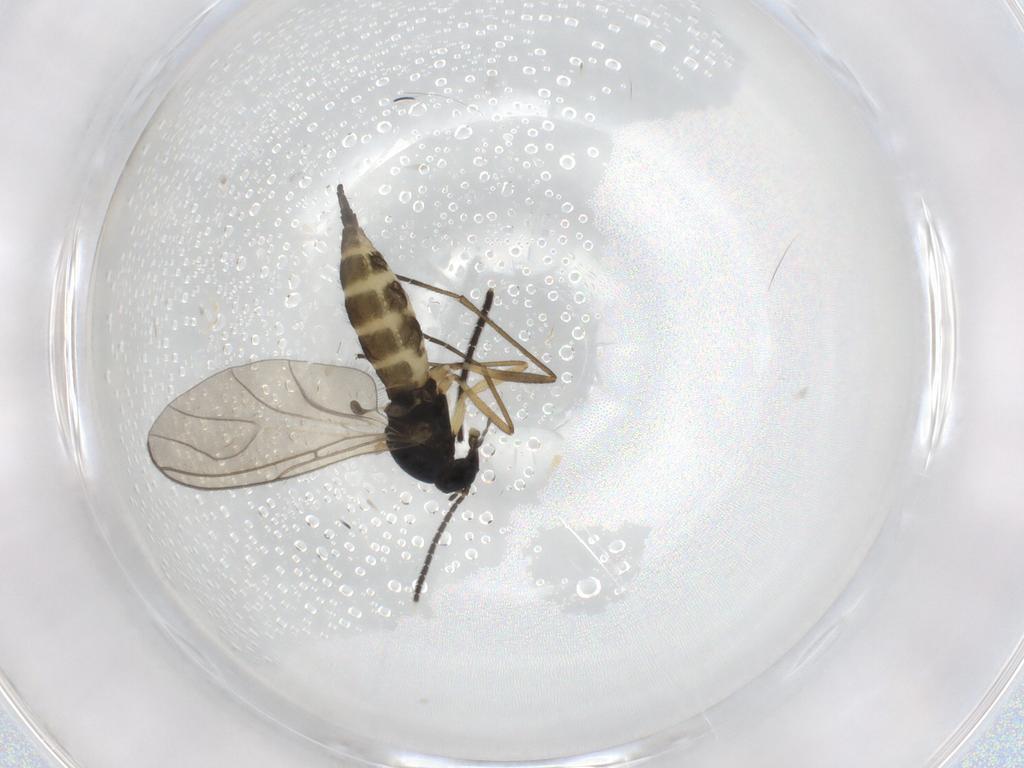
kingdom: Animalia
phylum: Arthropoda
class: Insecta
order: Diptera
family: Sciaridae
